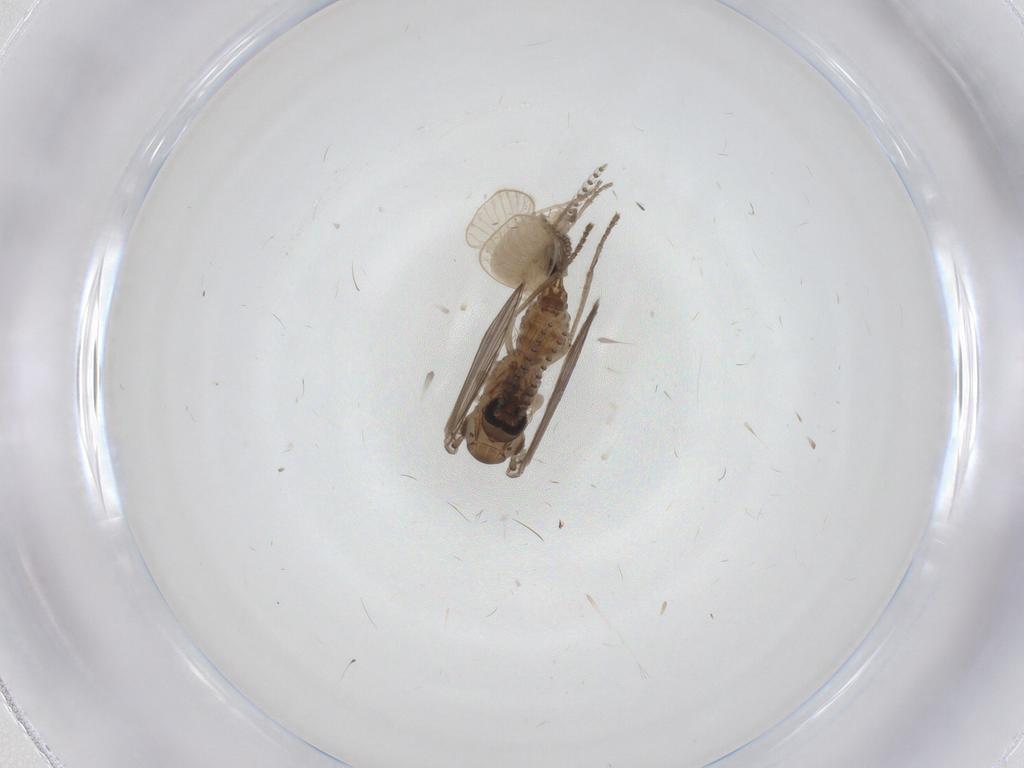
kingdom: Animalia
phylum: Arthropoda
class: Insecta
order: Diptera
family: Psychodidae
